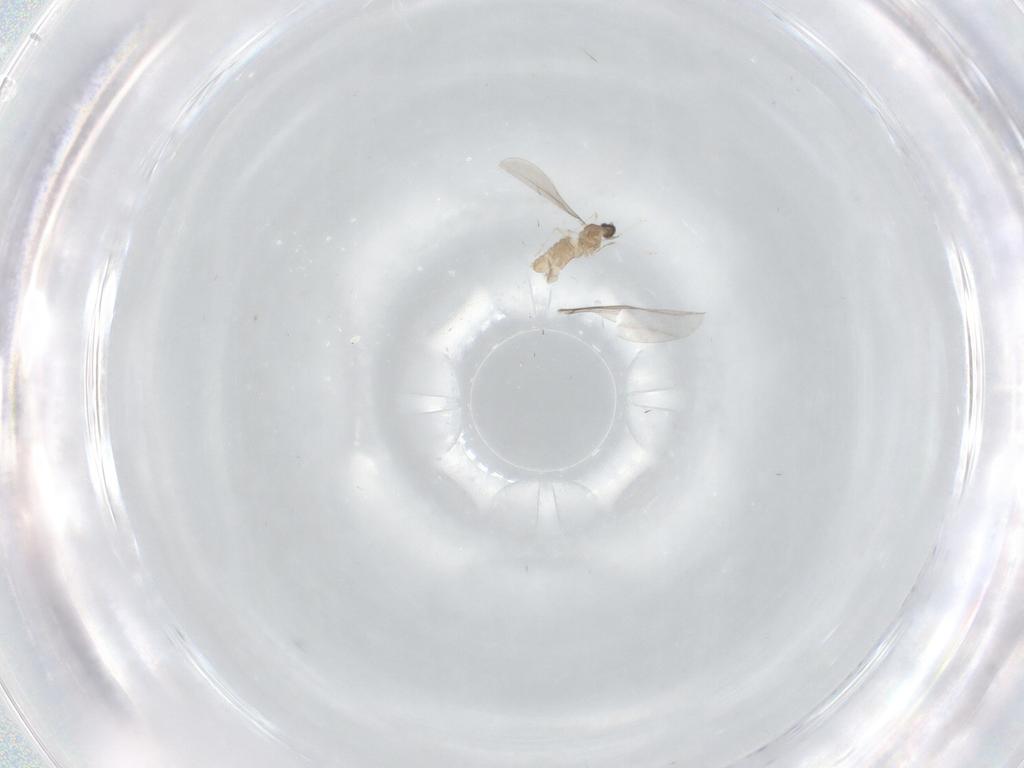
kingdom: Animalia
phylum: Arthropoda
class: Insecta
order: Diptera
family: Cecidomyiidae
